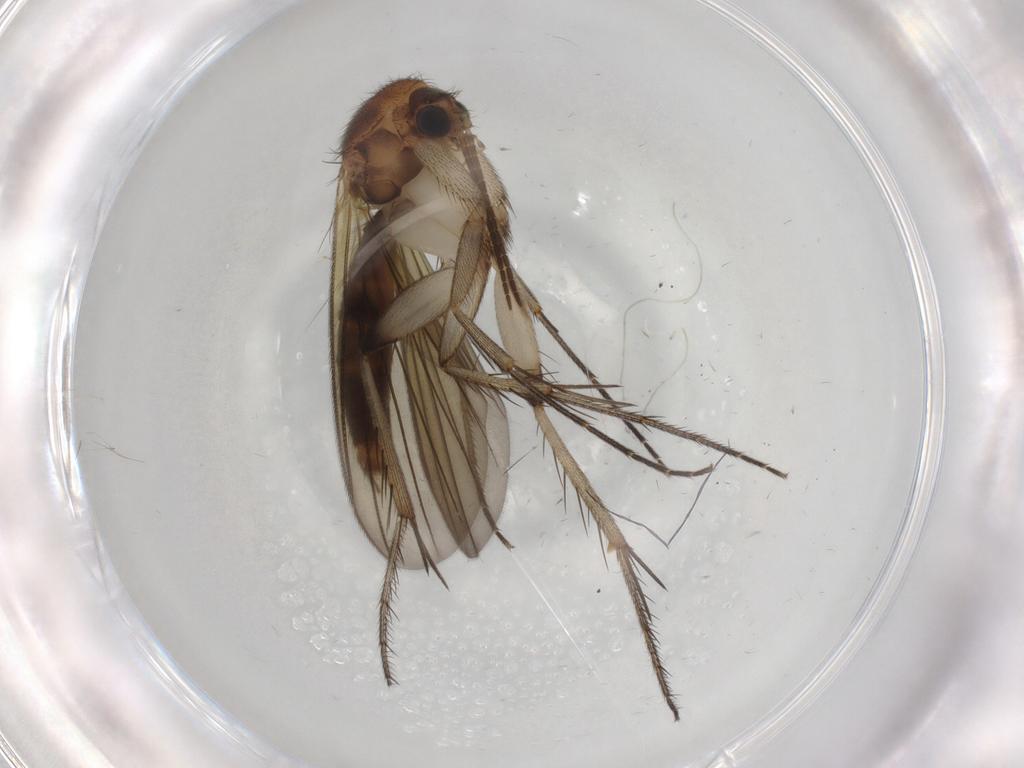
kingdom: Animalia
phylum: Arthropoda
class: Insecta
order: Diptera
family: Mycetophilidae
